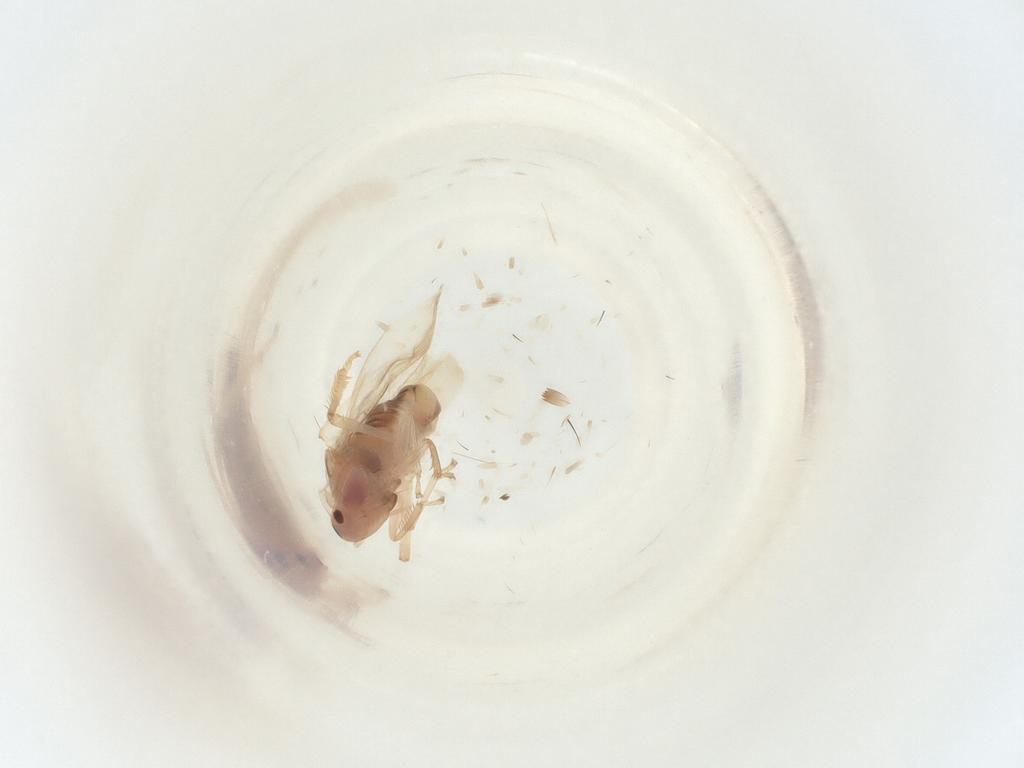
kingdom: Animalia
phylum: Arthropoda
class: Insecta
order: Hemiptera
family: Cicadellidae
